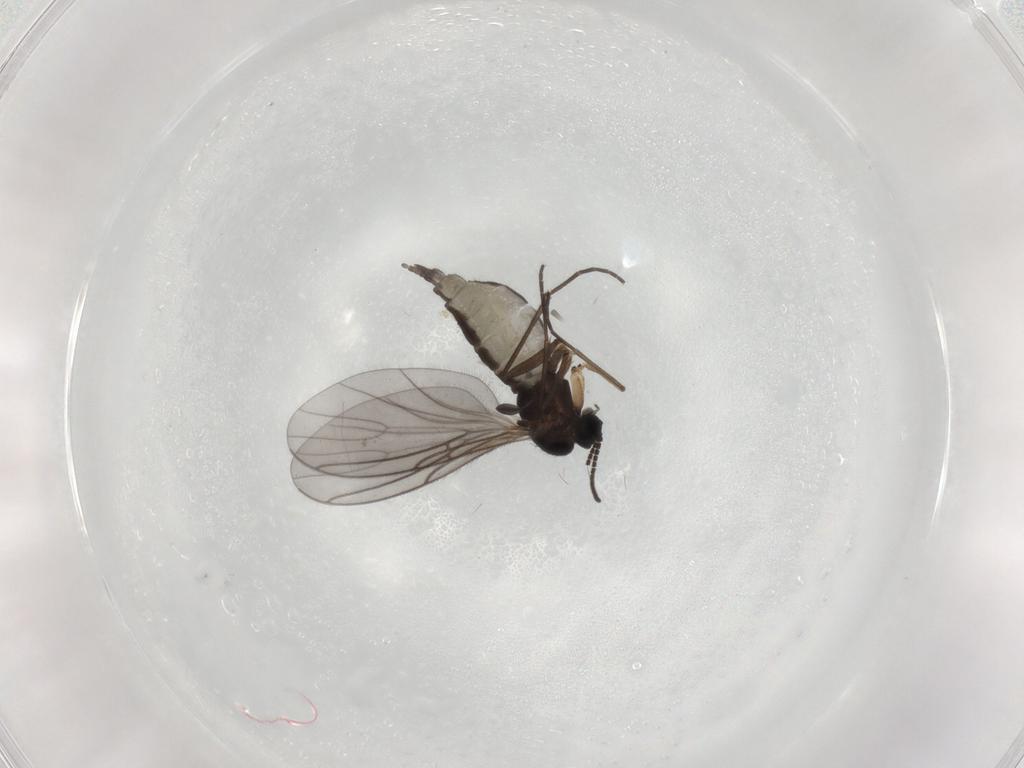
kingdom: Animalia
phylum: Arthropoda
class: Insecta
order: Diptera
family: Sciaridae
